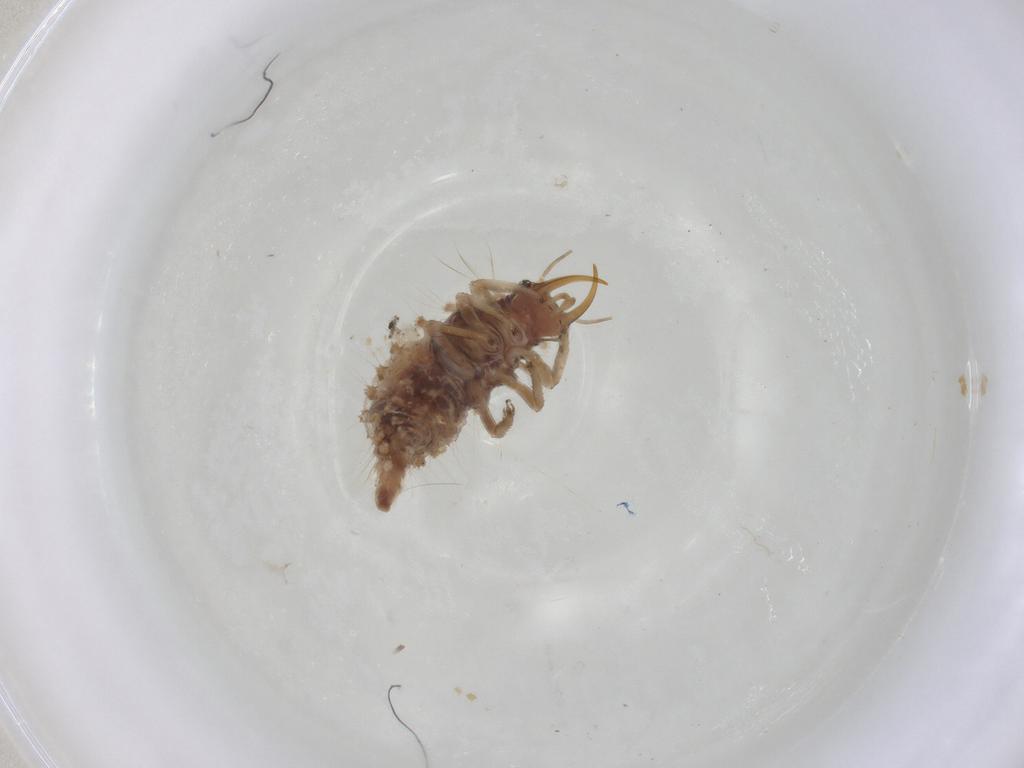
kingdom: Animalia
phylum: Arthropoda
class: Insecta
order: Neuroptera
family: Chrysopidae
